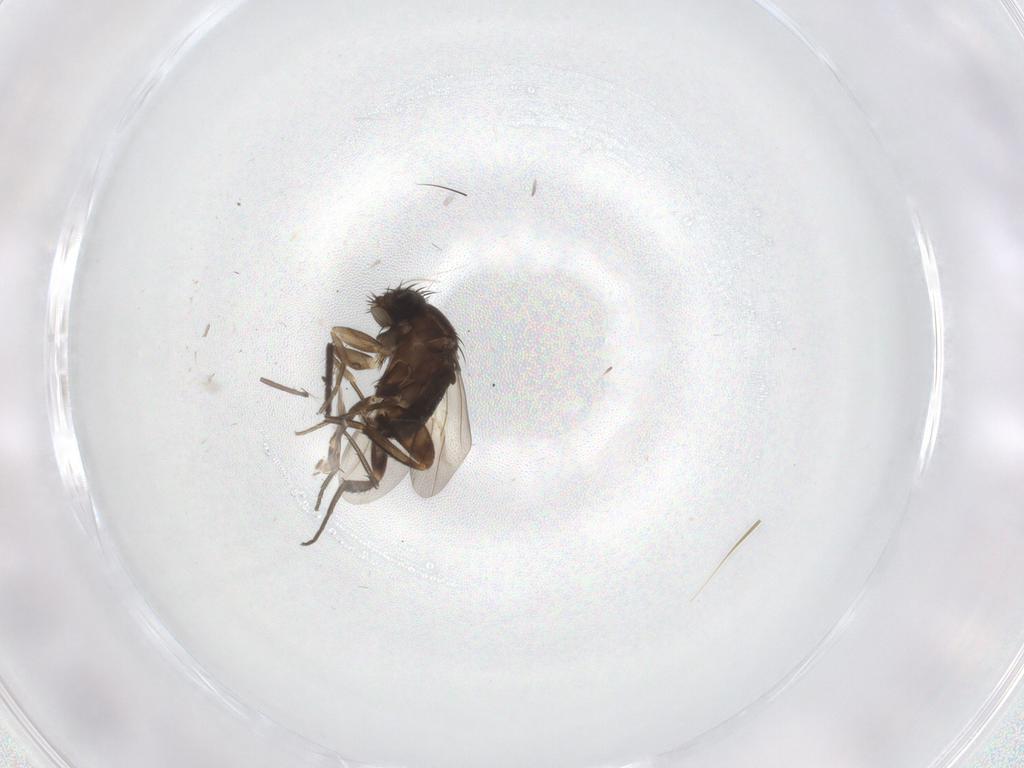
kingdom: Animalia
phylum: Arthropoda
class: Insecta
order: Diptera
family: Phoridae
